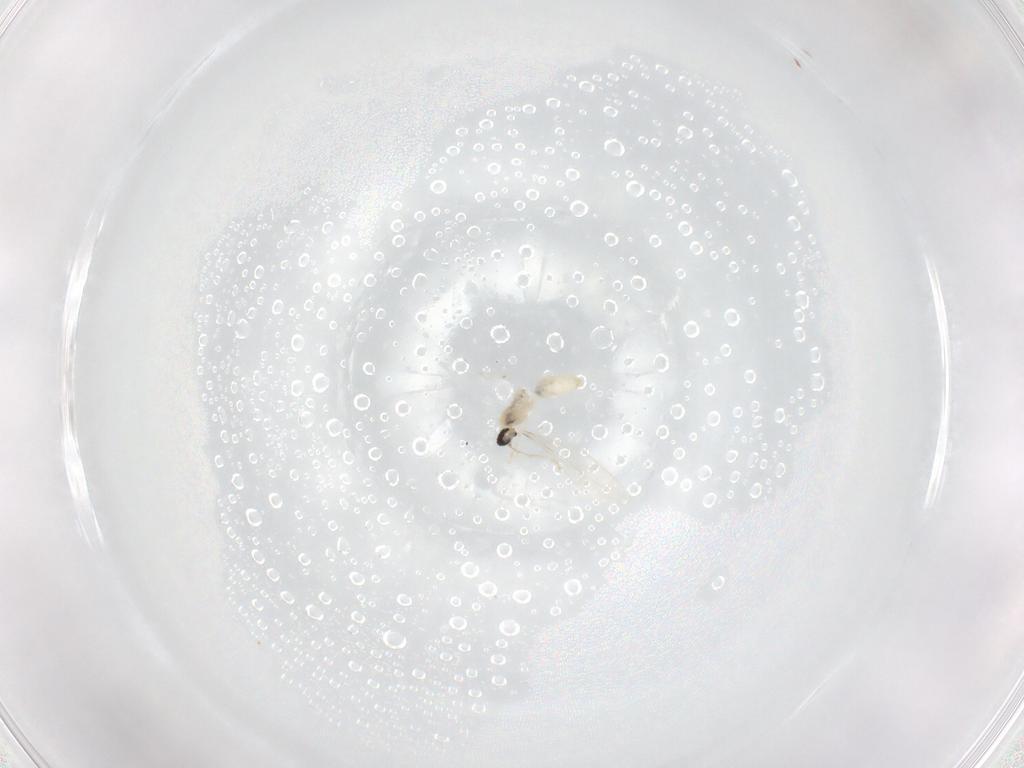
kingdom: Animalia
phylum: Arthropoda
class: Insecta
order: Diptera
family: Cecidomyiidae
